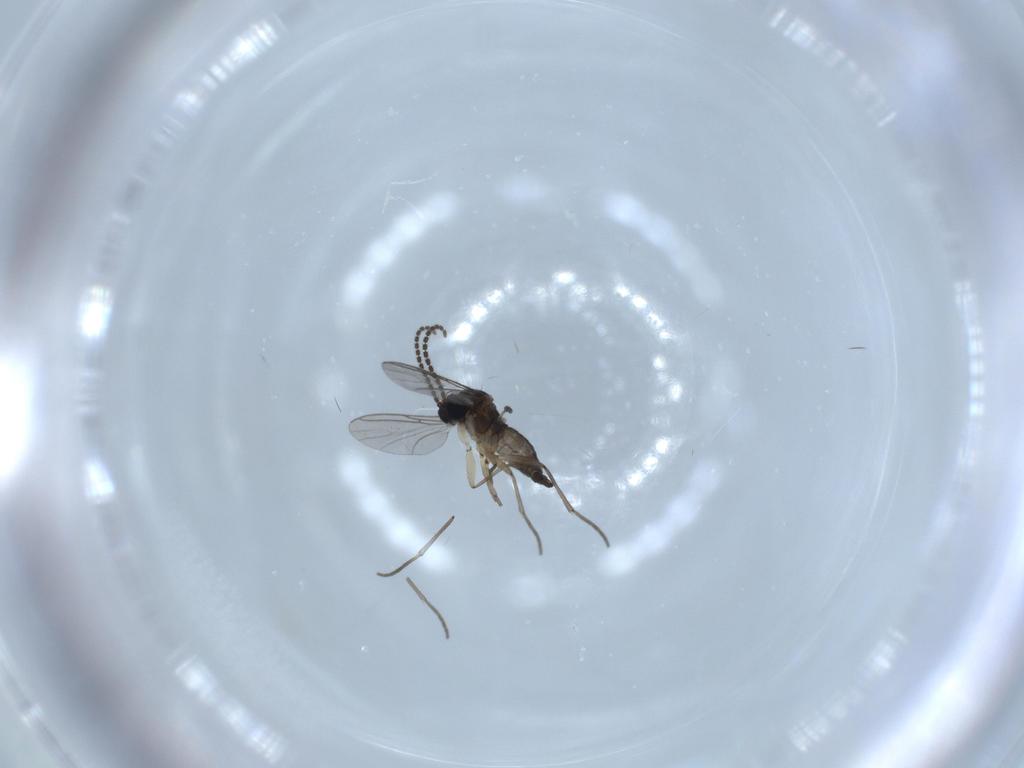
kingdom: Animalia
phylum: Arthropoda
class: Insecta
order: Diptera
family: Sciaridae
